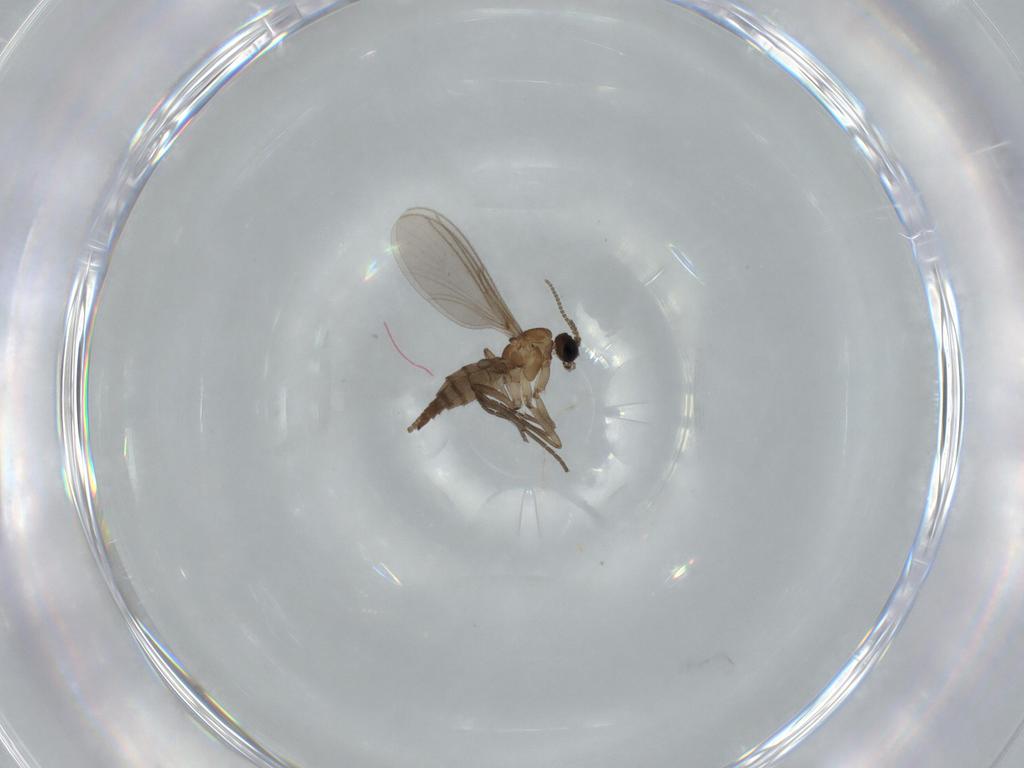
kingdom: Animalia
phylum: Arthropoda
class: Insecta
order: Diptera
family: Sciaridae
